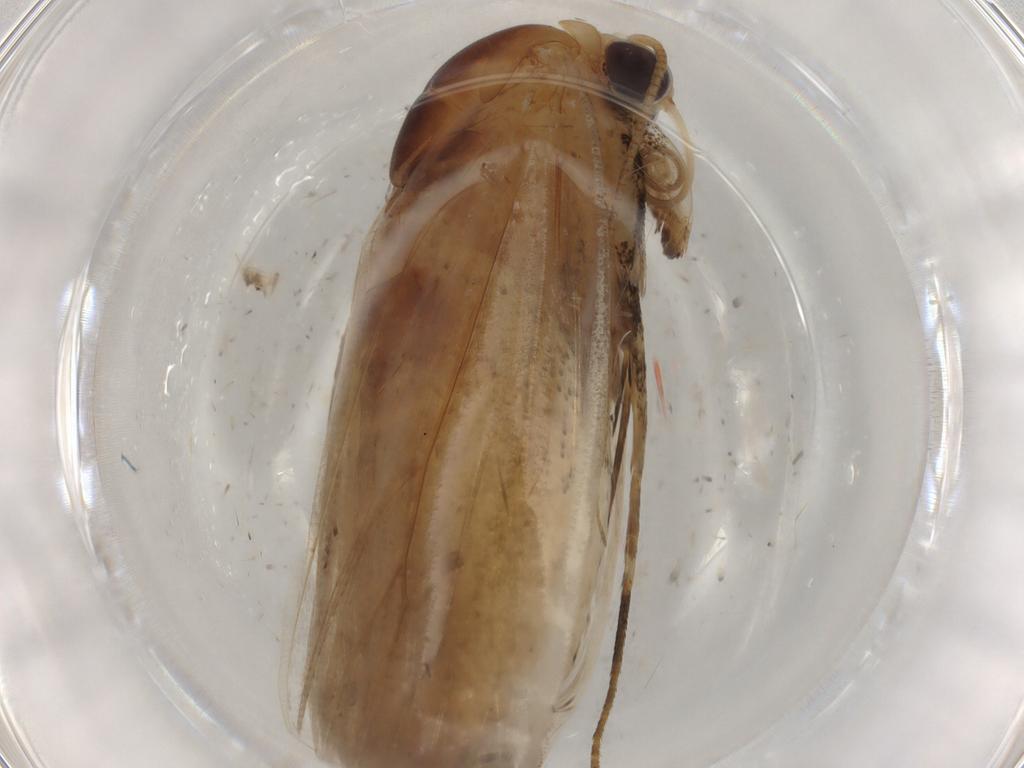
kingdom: Animalia
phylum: Arthropoda
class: Insecta
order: Lepidoptera
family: Nolidae
